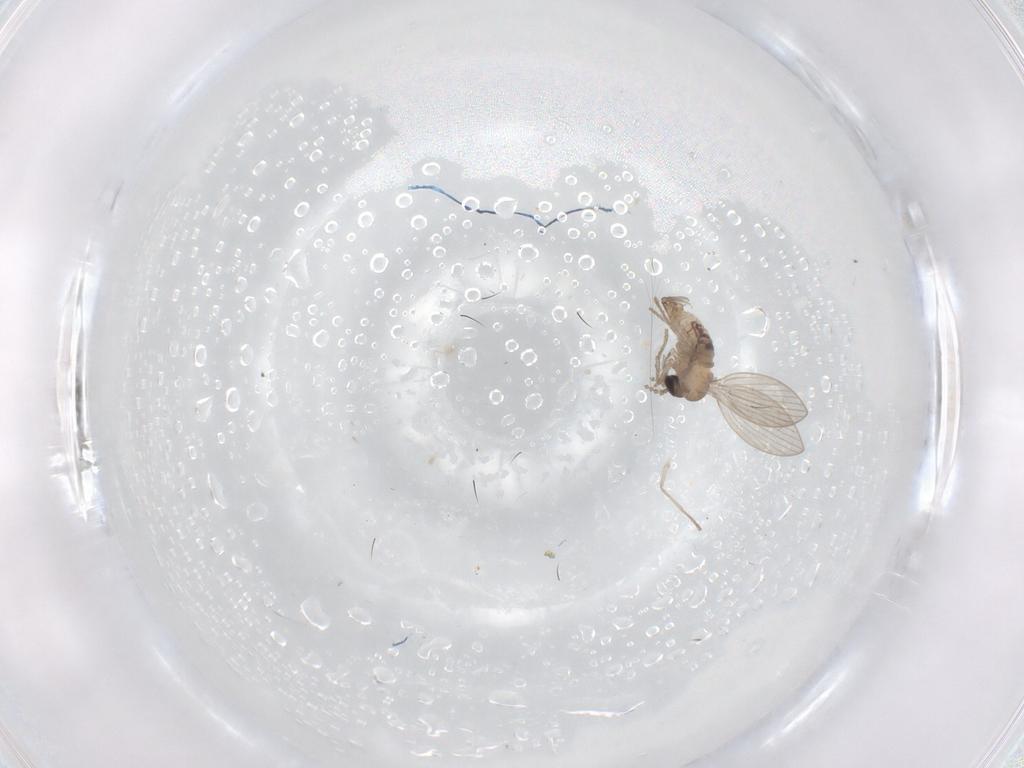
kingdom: Animalia
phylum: Arthropoda
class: Insecta
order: Diptera
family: Psychodidae
